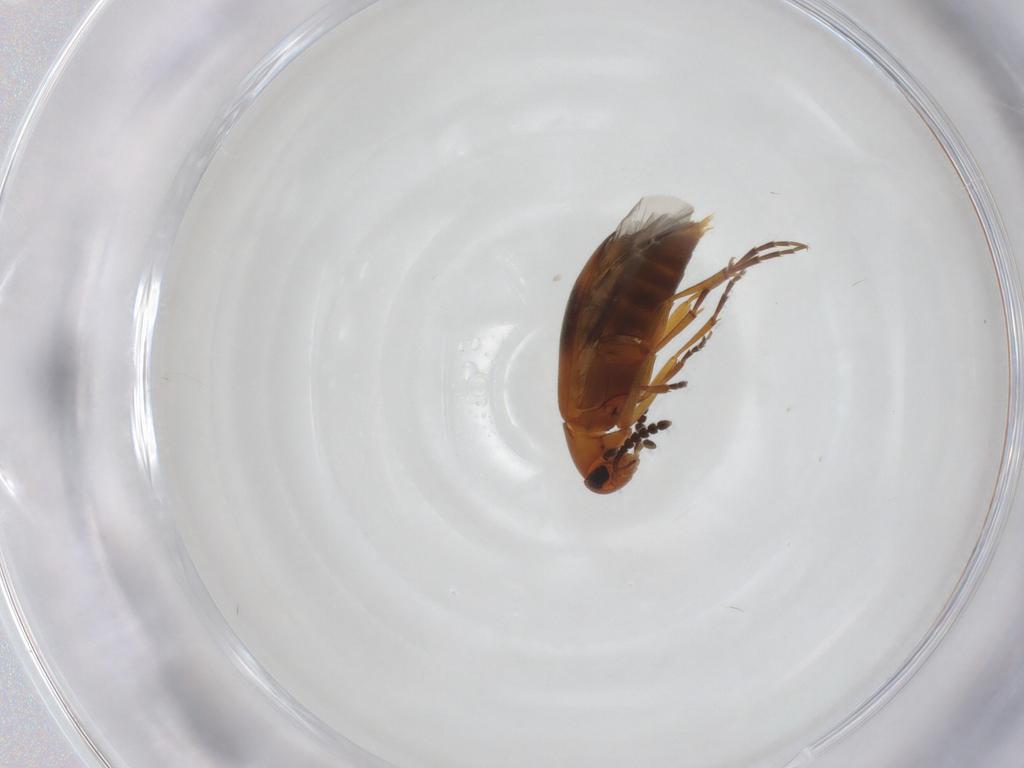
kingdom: Animalia
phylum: Arthropoda
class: Insecta
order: Coleoptera
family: Scraptiidae
